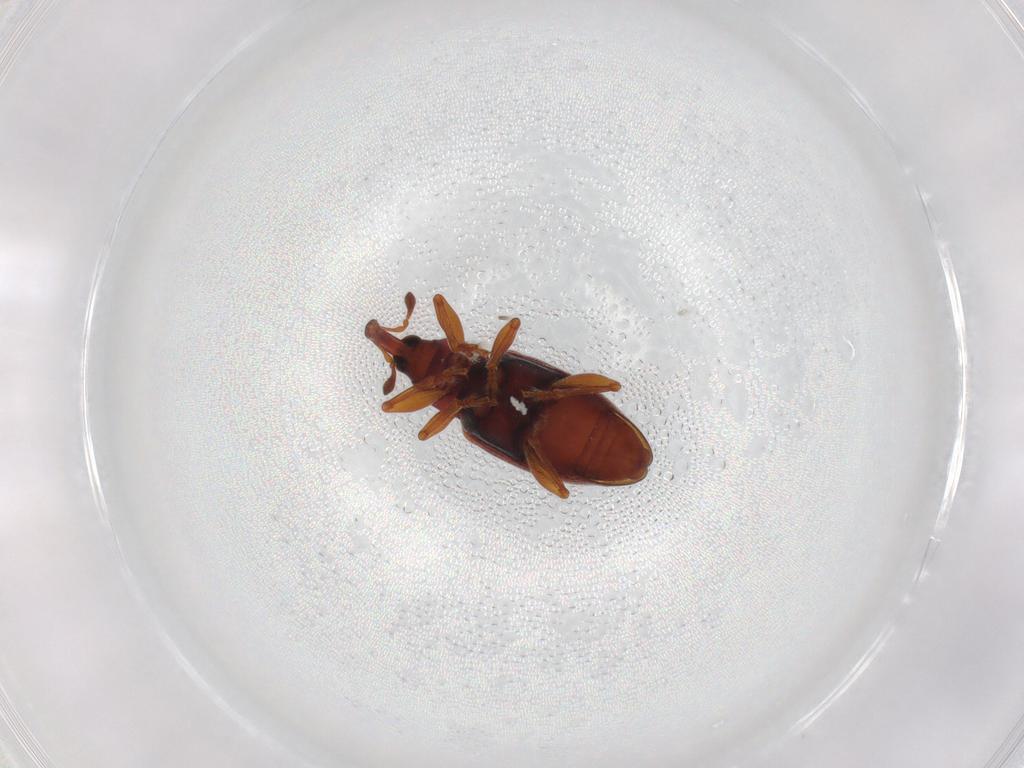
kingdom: Animalia
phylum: Arthropoda
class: Insecta
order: Coleoptera
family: Curculionidae
